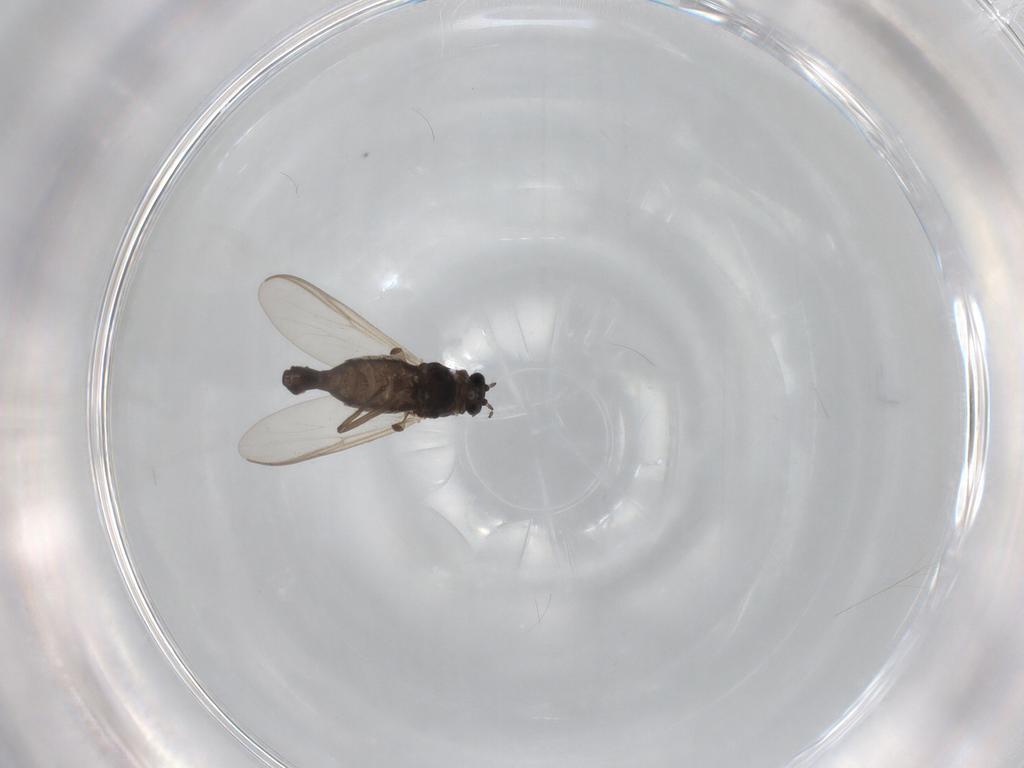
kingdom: Animalia
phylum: Arthropoda
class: Insecta
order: Diptera
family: Chironomidae
